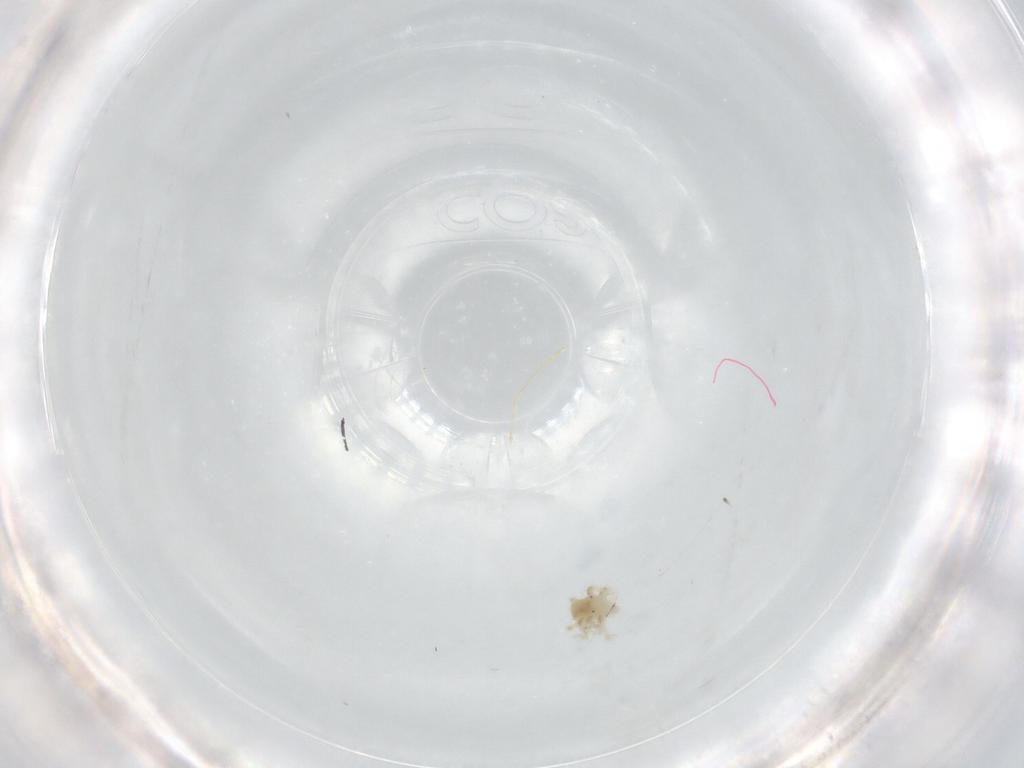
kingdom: Animalia
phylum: Arthropoda
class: Arachnida
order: Trombidiformes
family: Anystidae
